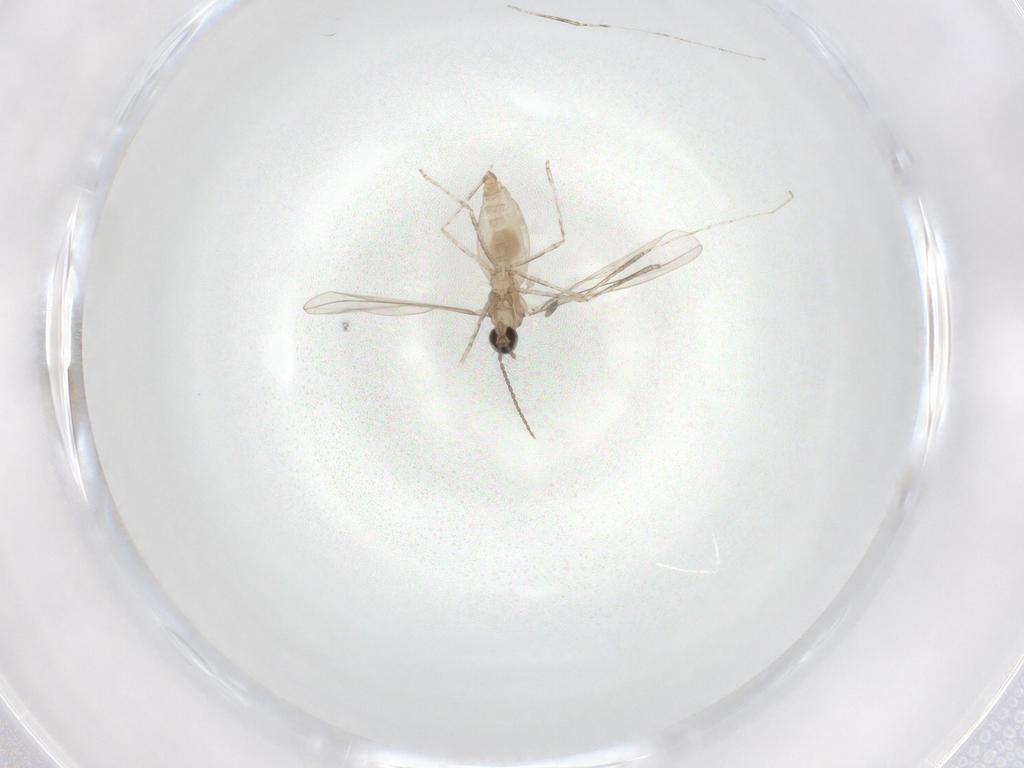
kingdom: Animalia
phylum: Arthropoda
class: Insecta
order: Diptera
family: Cecidomyiidae
